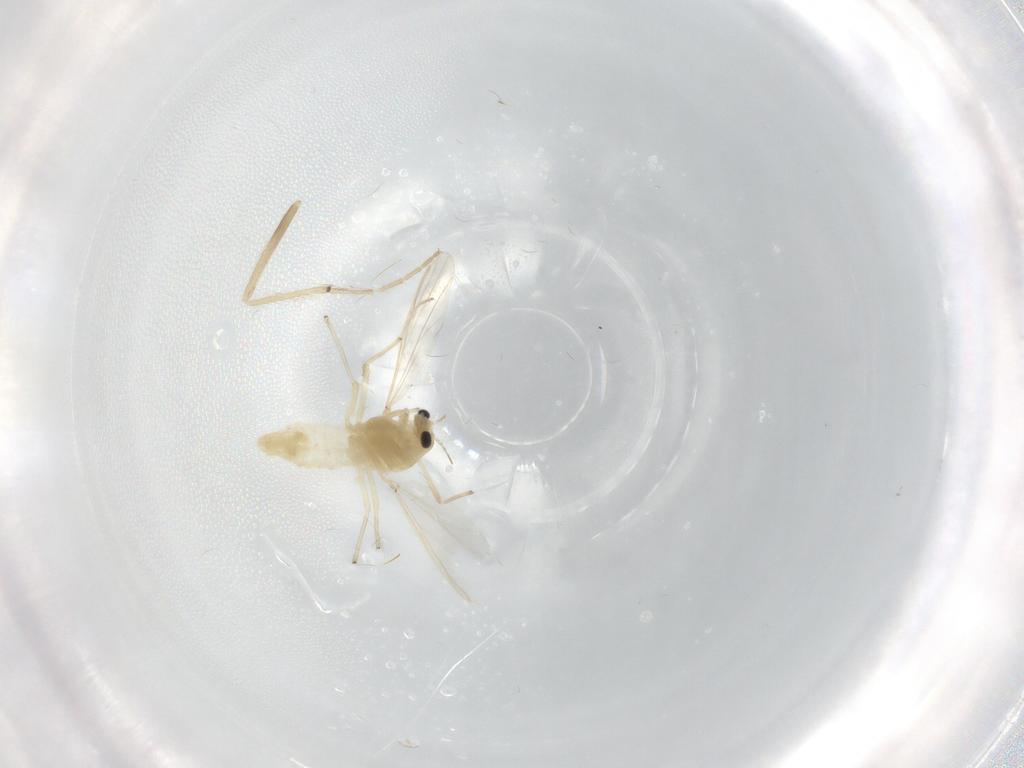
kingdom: Animalia
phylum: Arthropoda
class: Insecta
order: Diptera
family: Chironomidae
